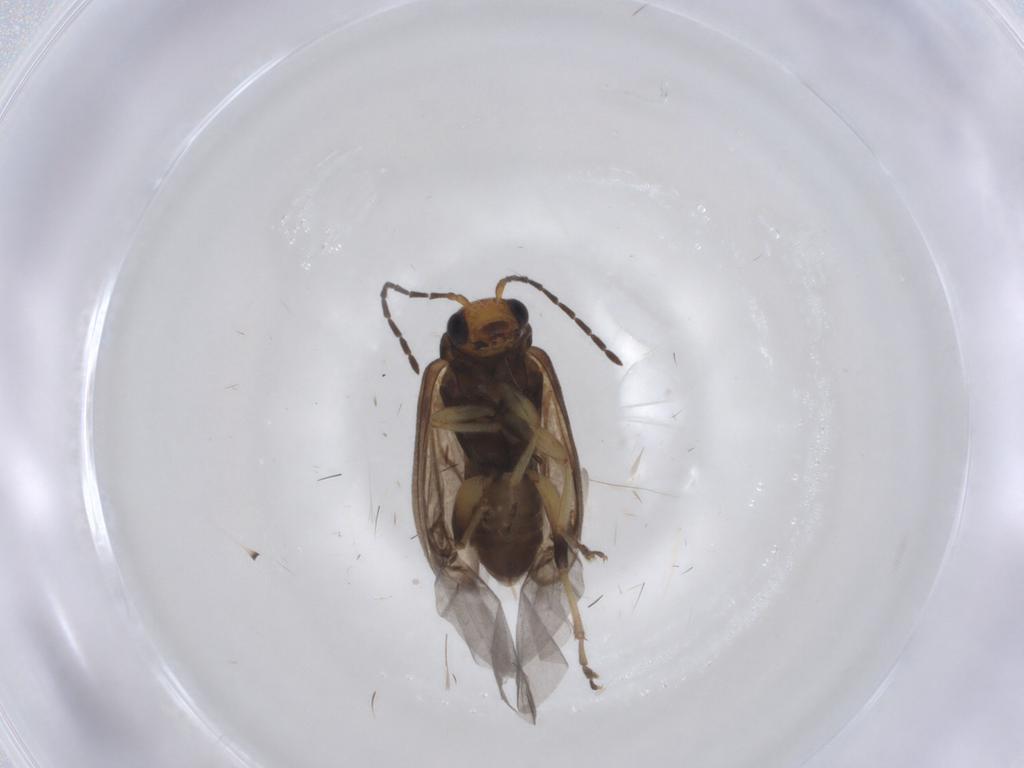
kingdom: Animalia
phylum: Arthropoda
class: Insecta
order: Coleoptera
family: Chrysomelidae
